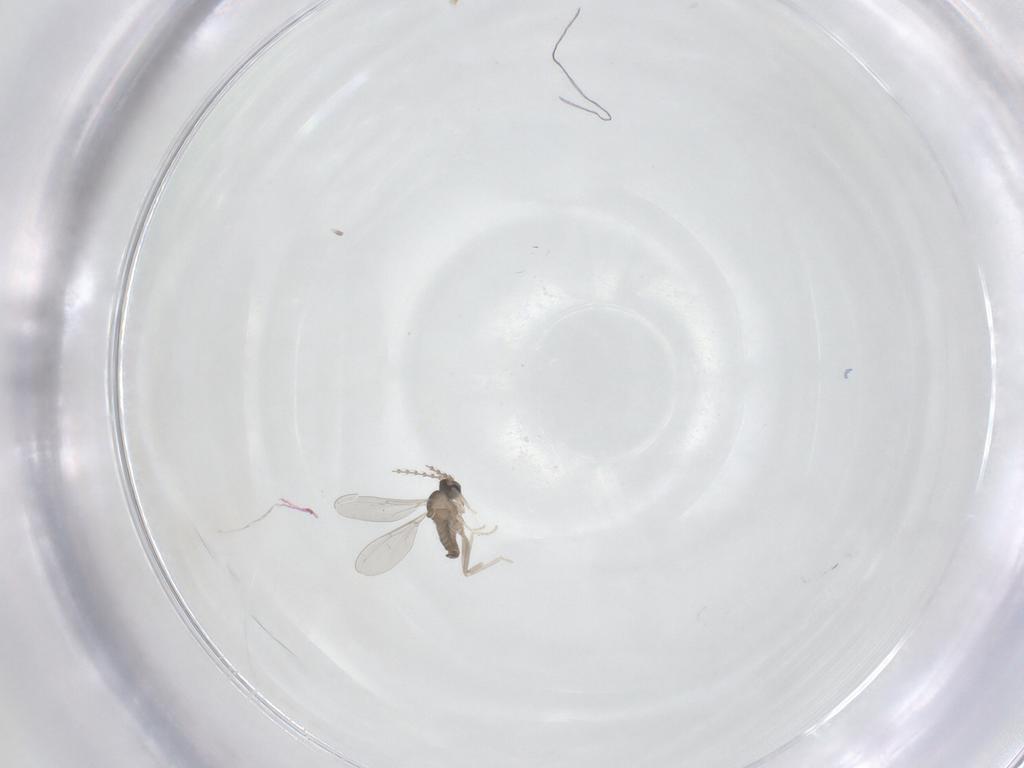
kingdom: Animalia
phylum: Arthropoda
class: Insecta
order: Diptera
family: Cecidomyiidae
